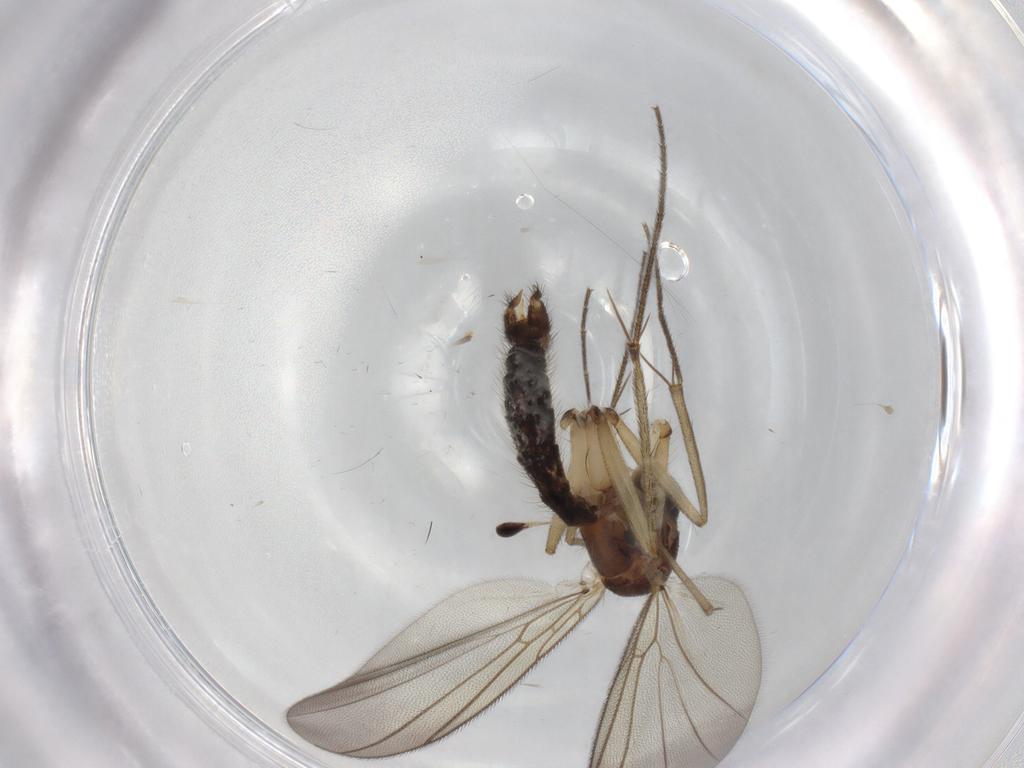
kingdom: Animalia
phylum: Arthropoda
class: Insecta
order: Diptera
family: Mycetophilidae
